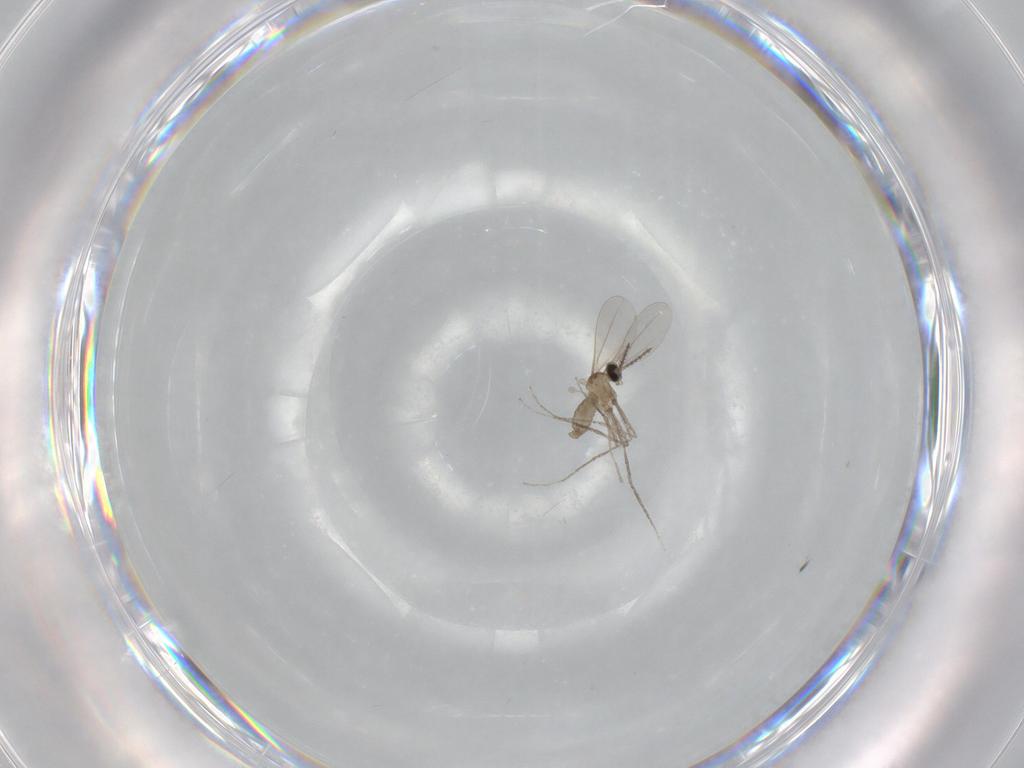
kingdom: Animalia
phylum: Arthropoda
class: Insecta
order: Diptera
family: Cecidomyiidae
